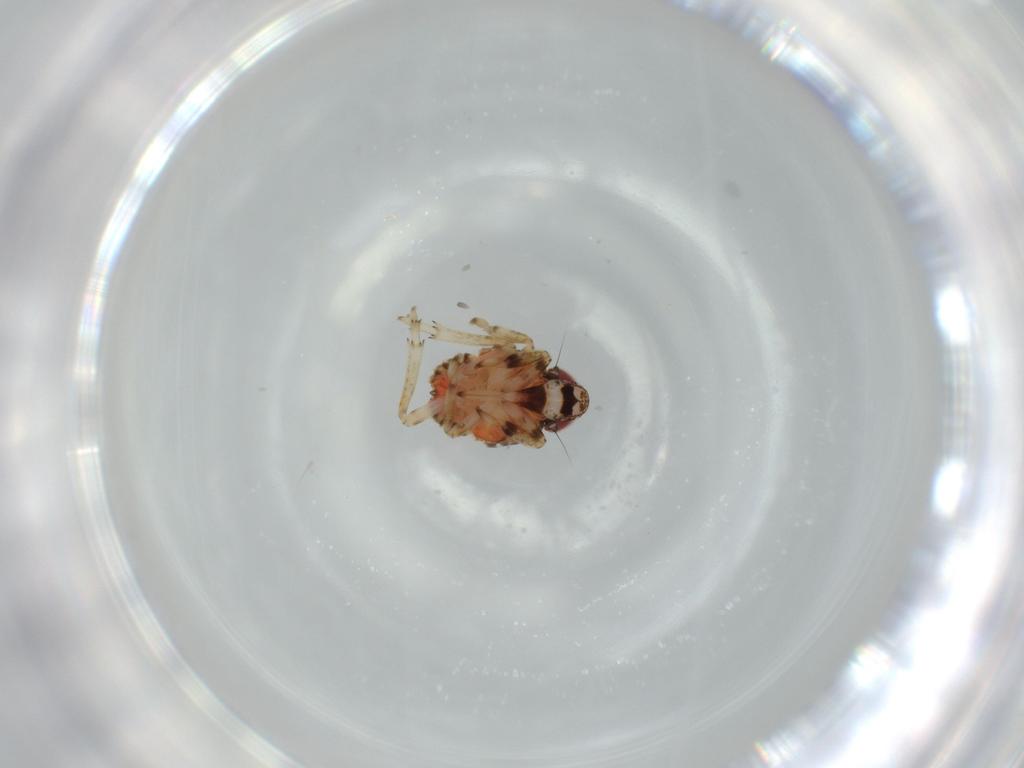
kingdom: Animalia
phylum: Arthropoda
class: Insecta
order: Hemiptera
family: Issidae
